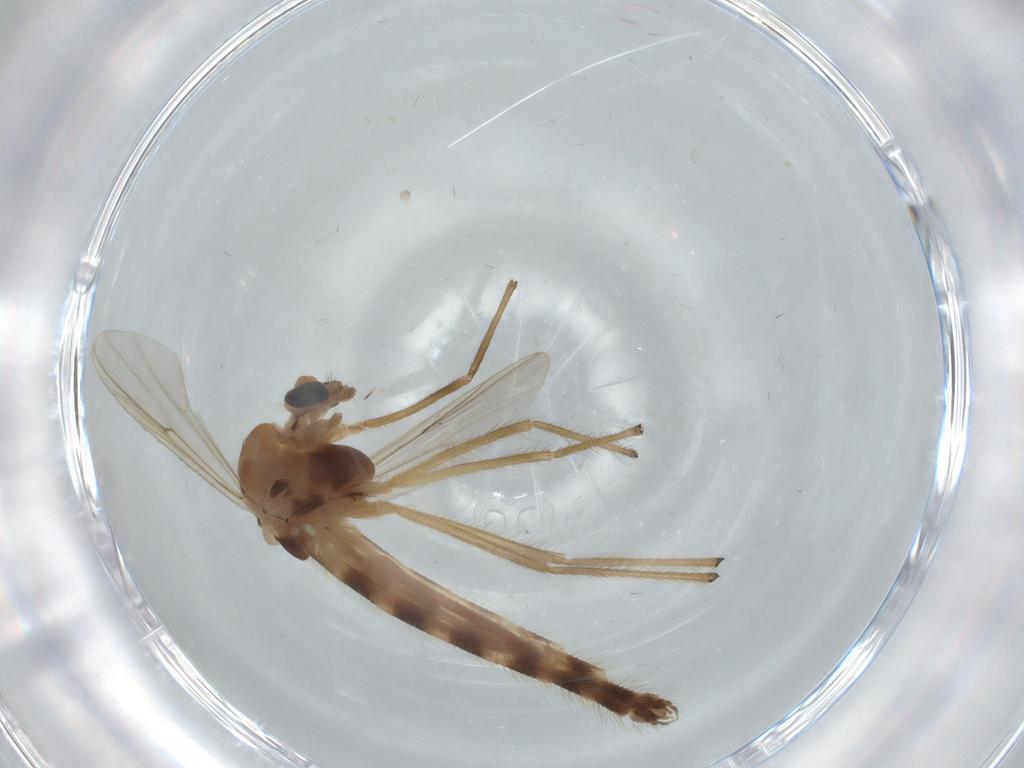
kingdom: Animalia
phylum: Arthropoda
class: Insecta
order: Diptera
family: Chironomidae
